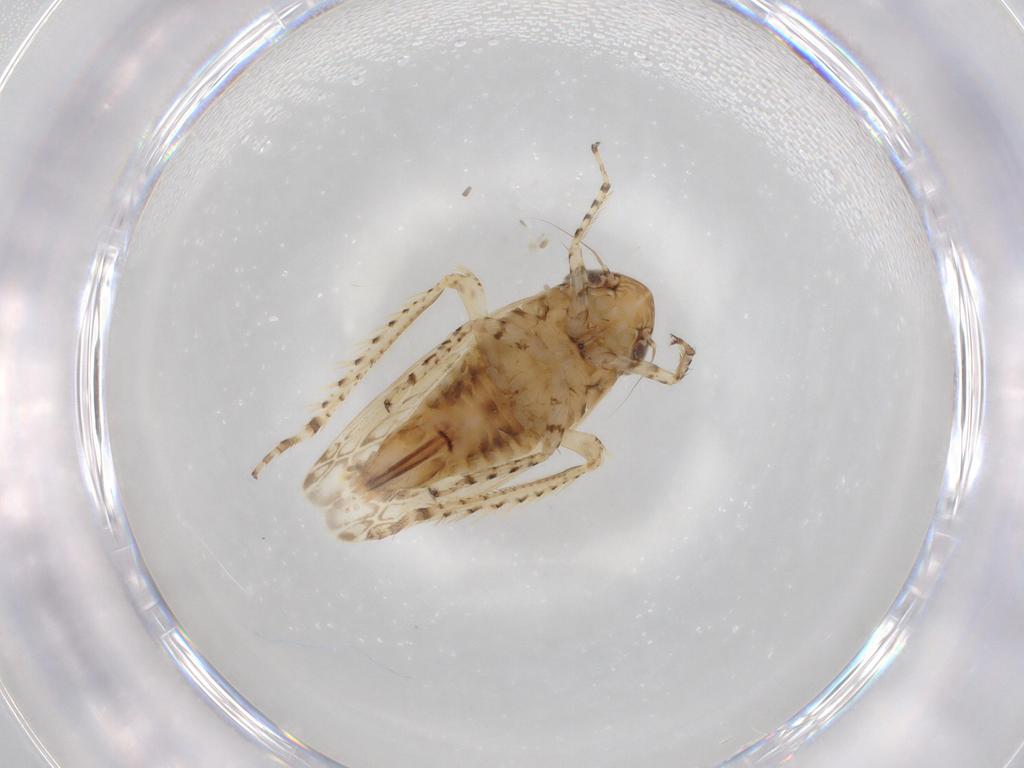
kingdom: Animalia
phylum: Arthropoda
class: Insecta
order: Hemiptera
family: Cicadellidae
